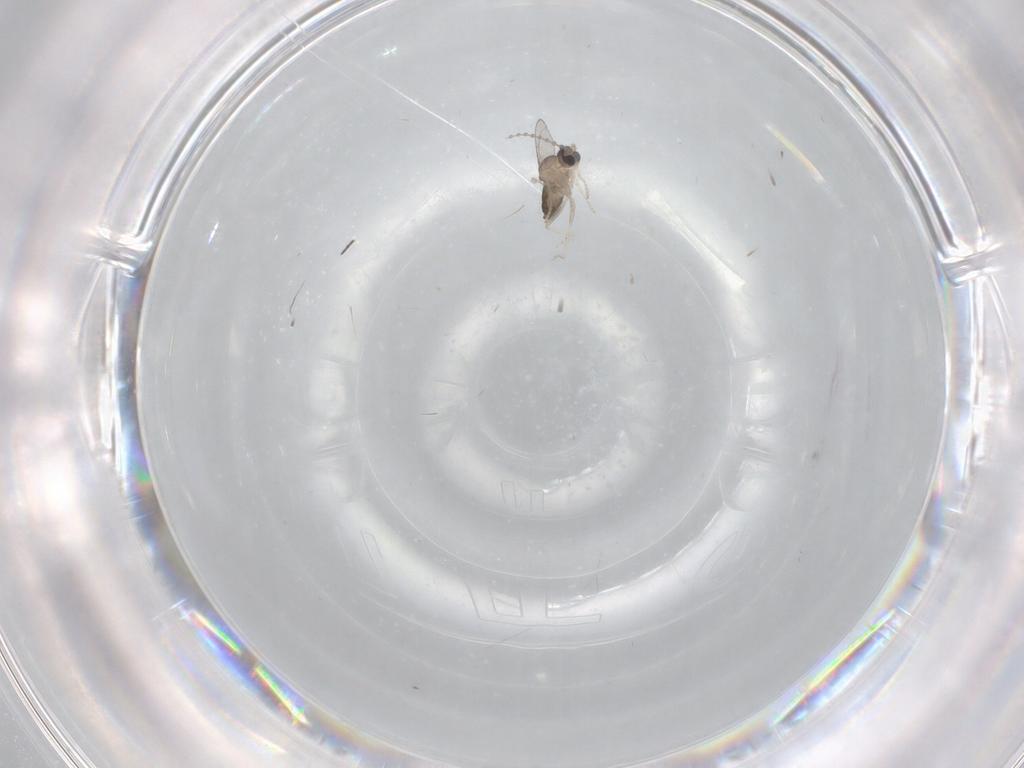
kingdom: Animalia
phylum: Arthropoda
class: Insecta
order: Diptera
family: Cecidomyiidae
